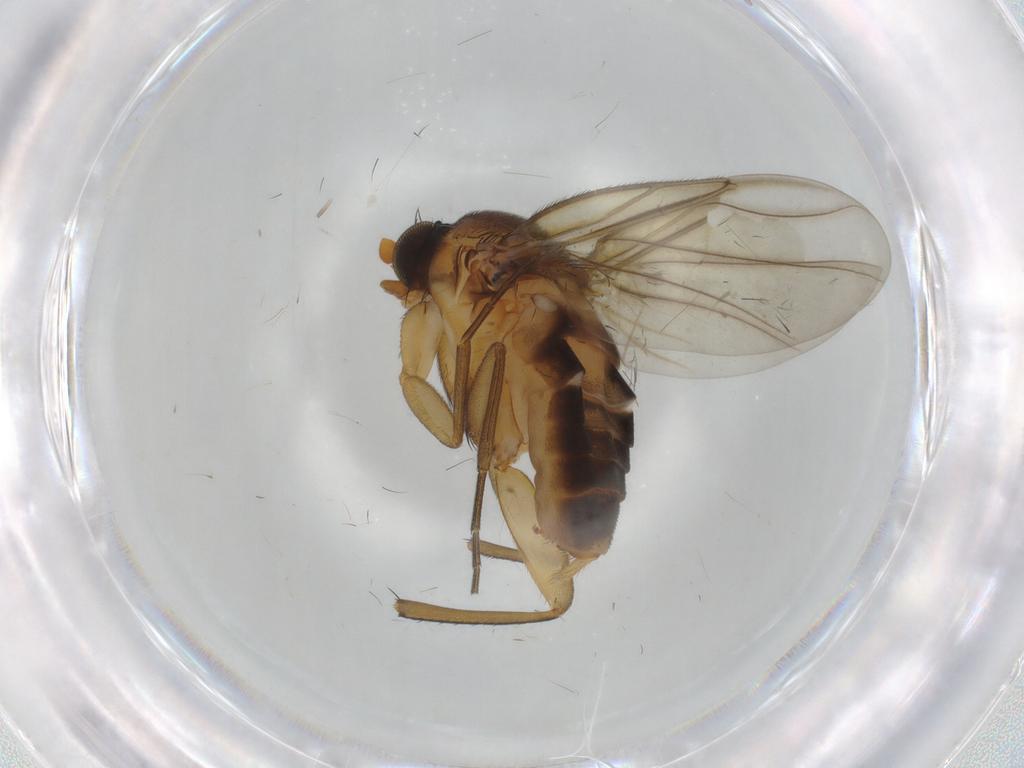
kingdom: Animalia
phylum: Arthropoda
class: Insecta
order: Diptera
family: Phoridae
